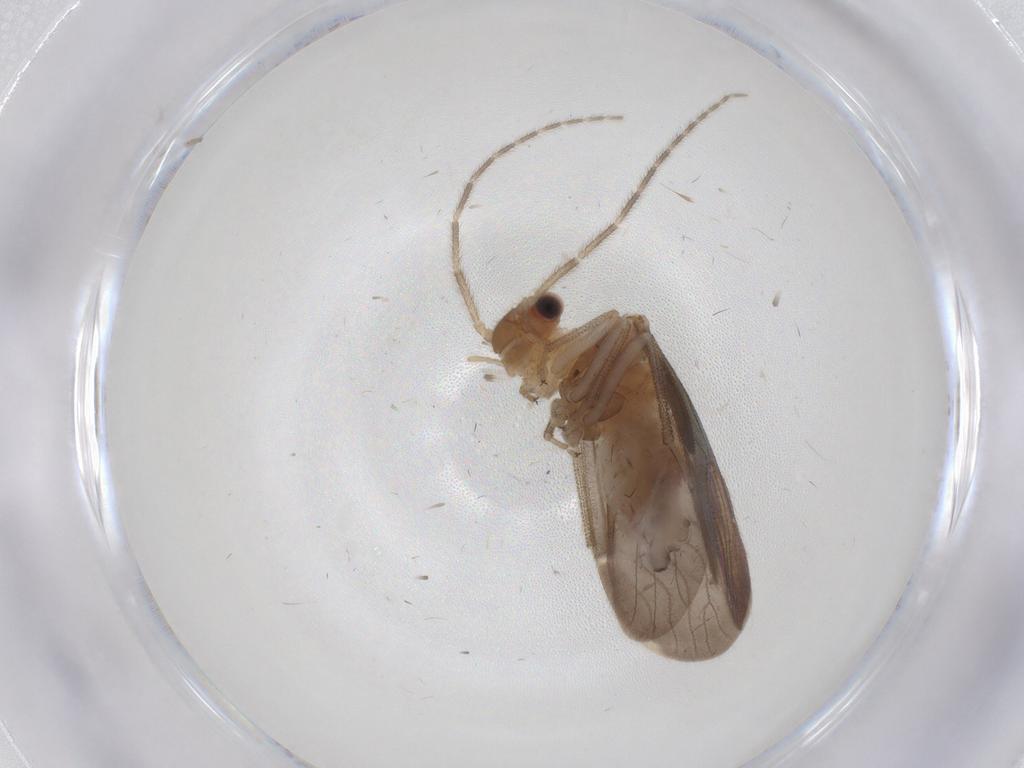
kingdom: Animalia
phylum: Arthropoda
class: Insecta
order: Psocodea
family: Amphipsocidae
